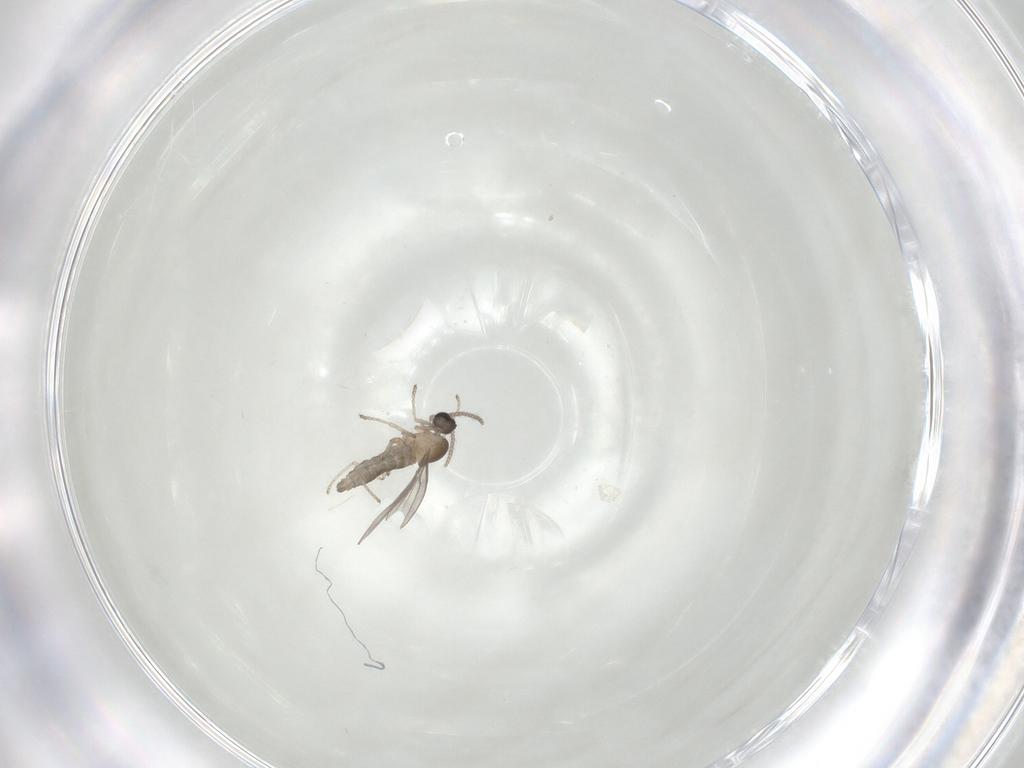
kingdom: Animalia
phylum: Arthropoda
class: Insecta
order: Diptera
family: Cecidomyiidae
